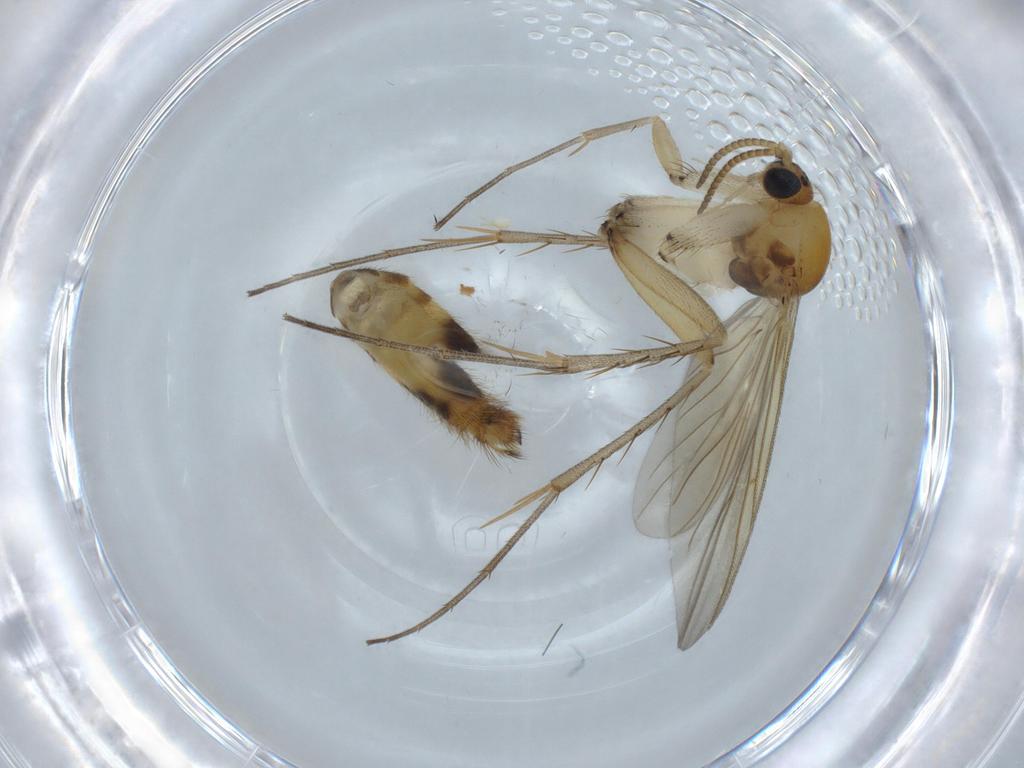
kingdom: Animalia
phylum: Arthropoda
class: Insecta
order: Diptera
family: Mycetophilidae
